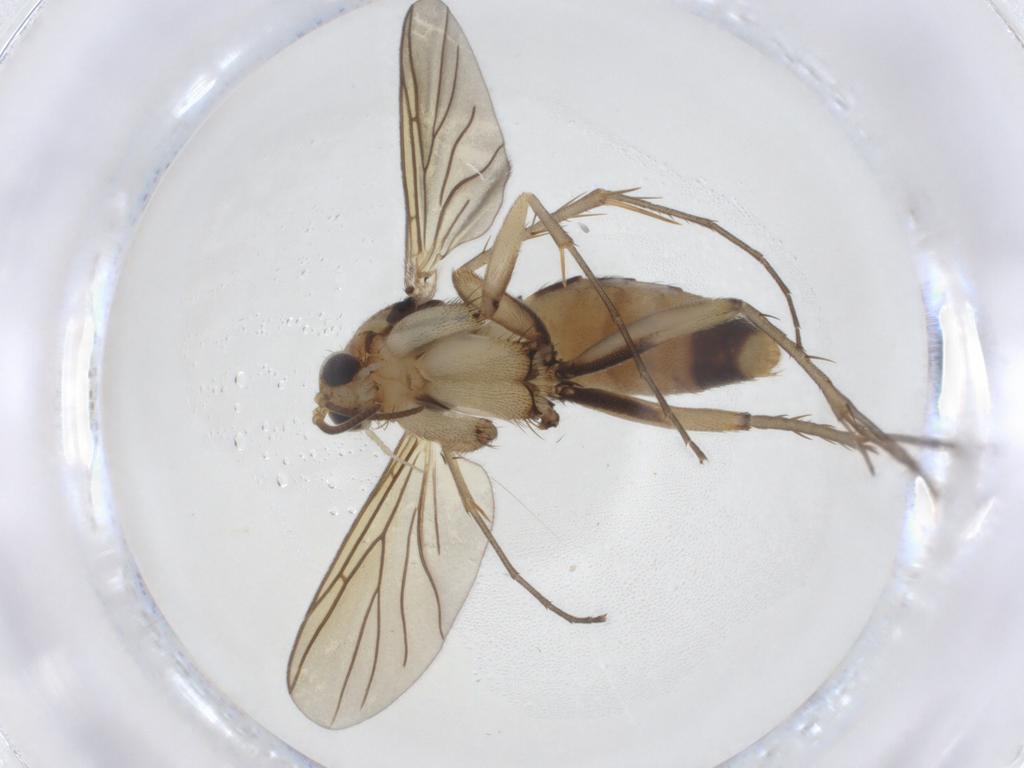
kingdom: Animalia
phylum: Arthropoda
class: Insecta
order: Diptera
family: Mycetophilidae
